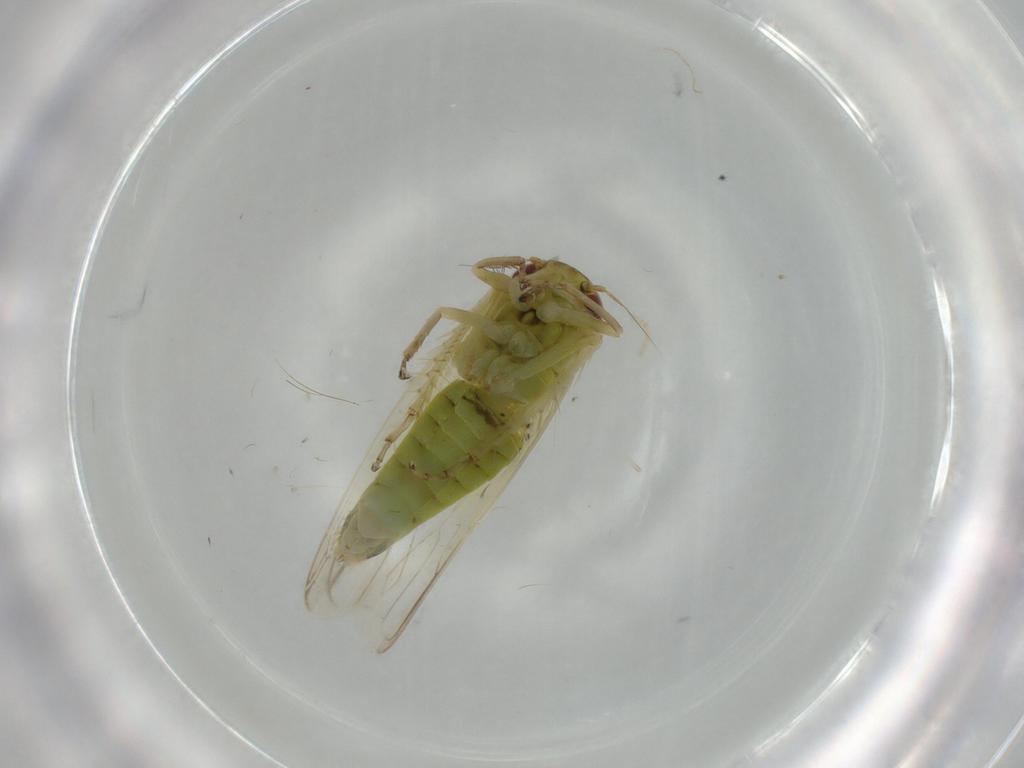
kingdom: Animalia
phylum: Arthropoda
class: Insecta
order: Hemiptera
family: Cicadellidae
